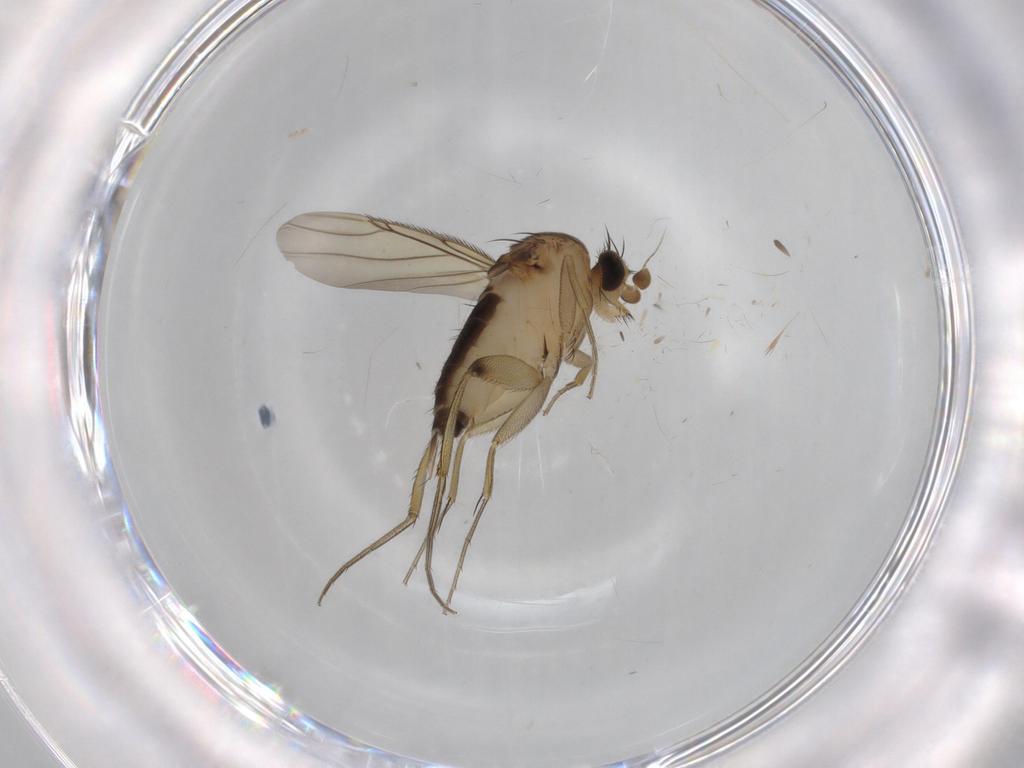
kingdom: Animalia
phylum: Arthropoda
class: Insecta
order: Diptera
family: Phoridae
